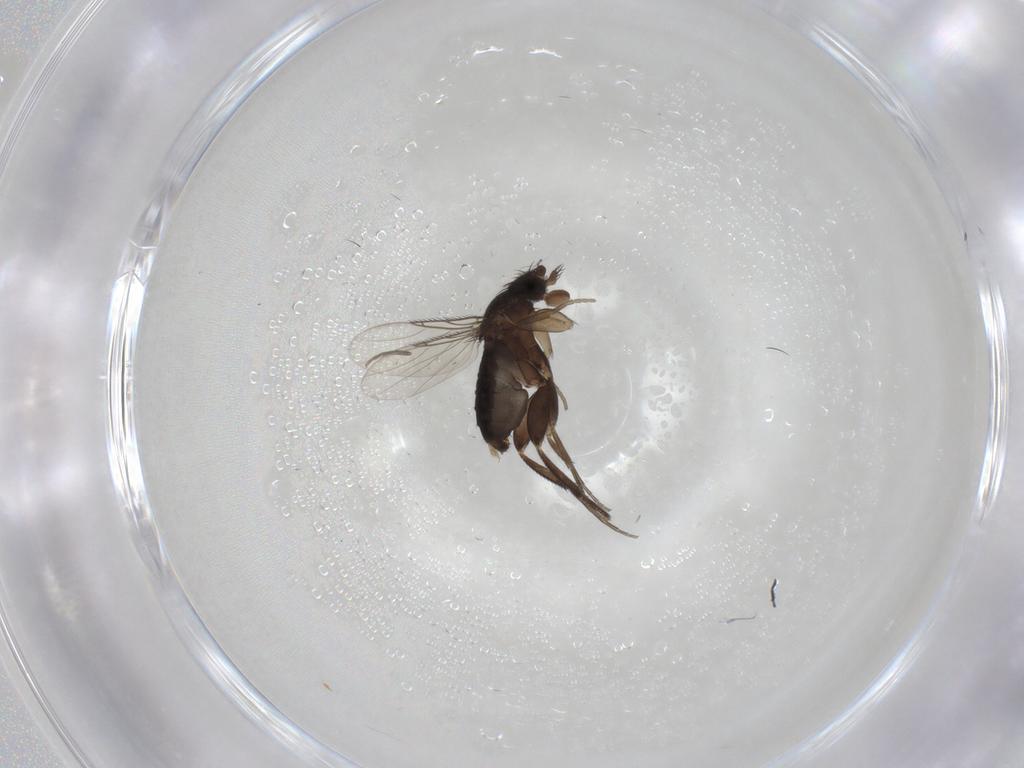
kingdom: Animalia
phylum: Arthropoda
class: Insecta
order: Diptera
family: Phoridae
